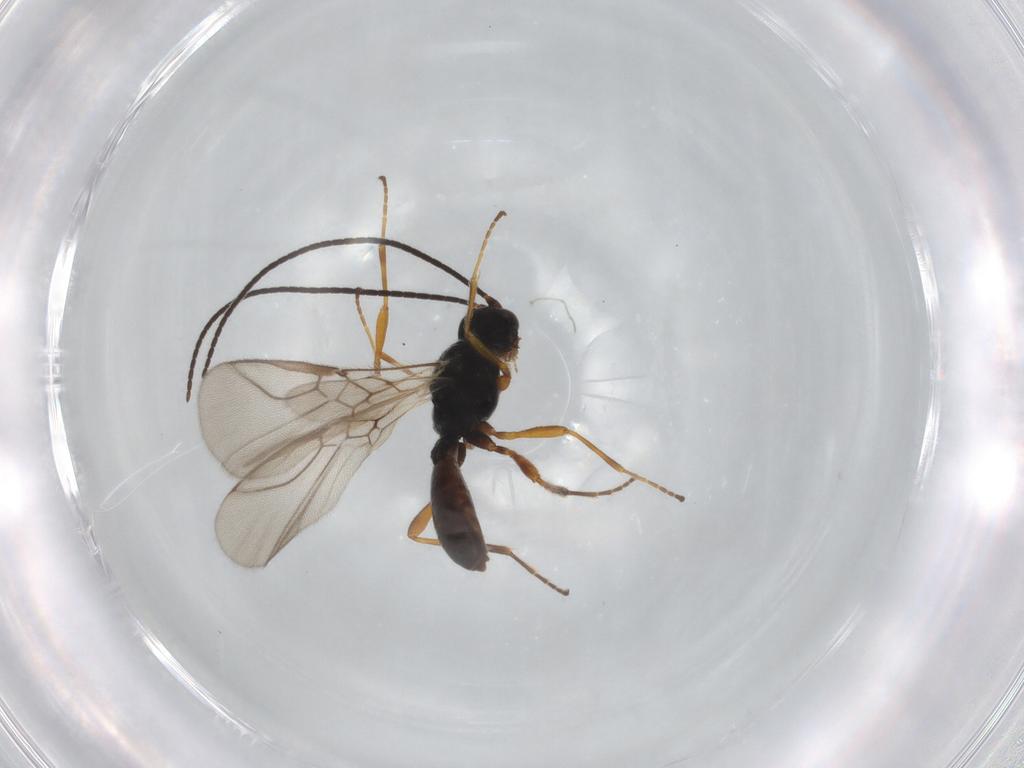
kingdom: Animalia
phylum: Arthropoda
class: Insecta
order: Hymenoptera
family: Braconidae
